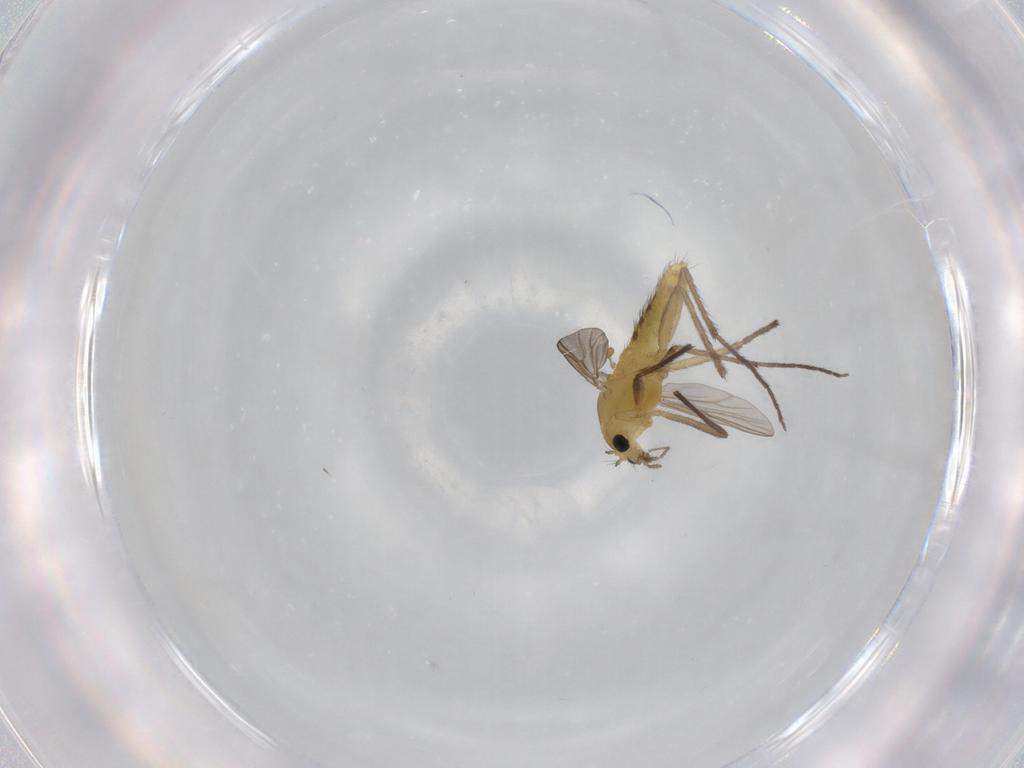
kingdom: Animalia
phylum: Arthropoda
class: Insecta
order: Diptera
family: Chironomidae
